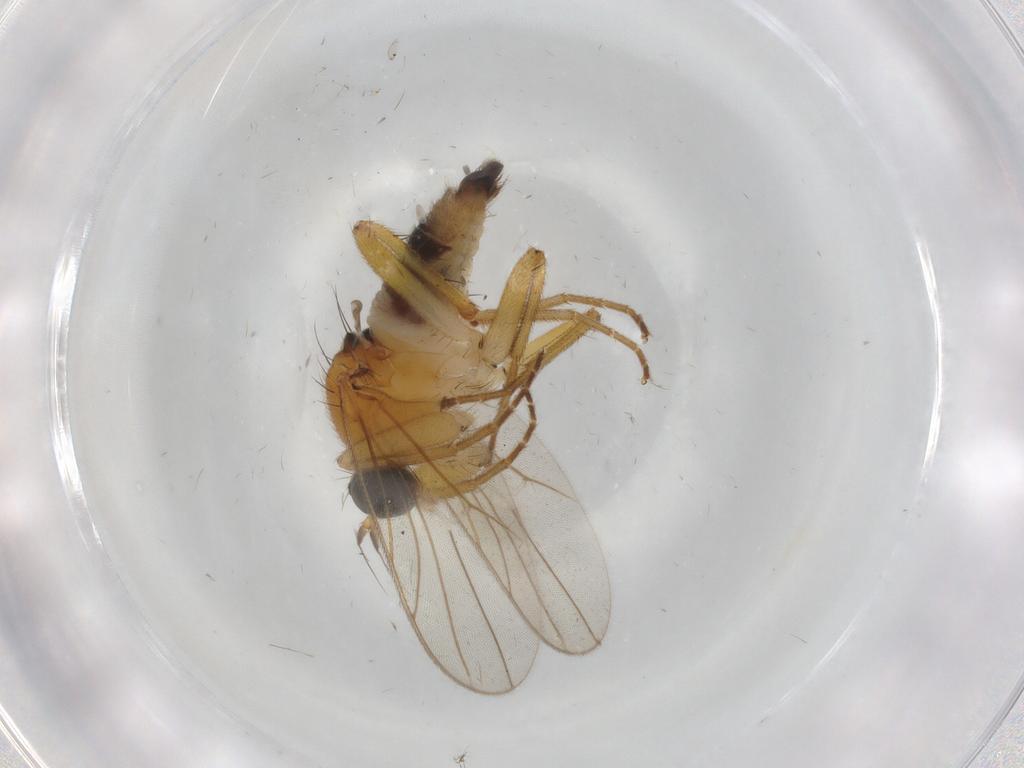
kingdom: Animalia
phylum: Arthropoda
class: Insecta
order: Diptera
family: Hybotidae
